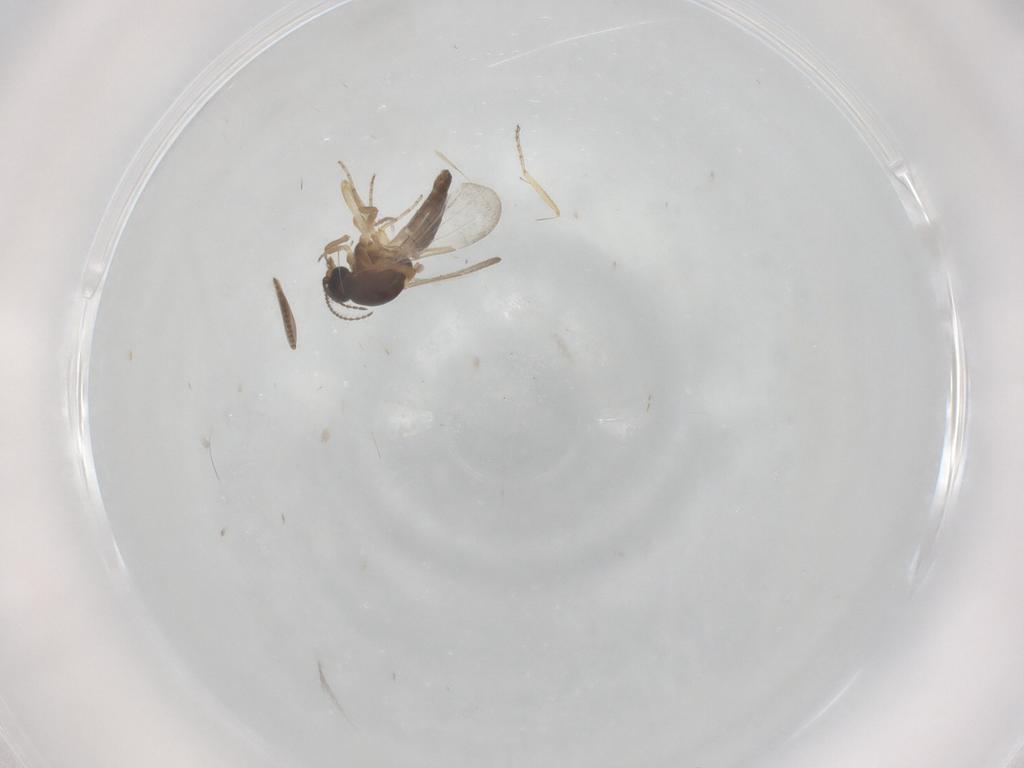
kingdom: Animalia
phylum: Arthropoda
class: Insecta
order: Diptera
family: Ceratopogonidae
